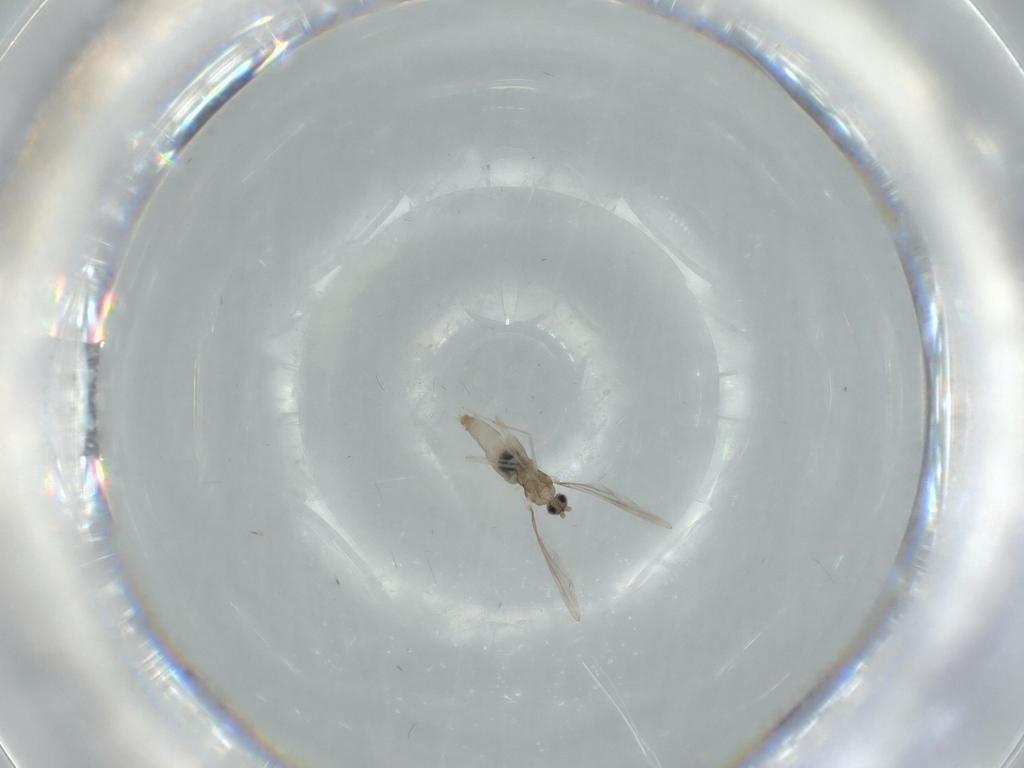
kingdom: Animalia
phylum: Arthropoda
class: Insecta
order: Diptera
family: Cecidomyiidae
